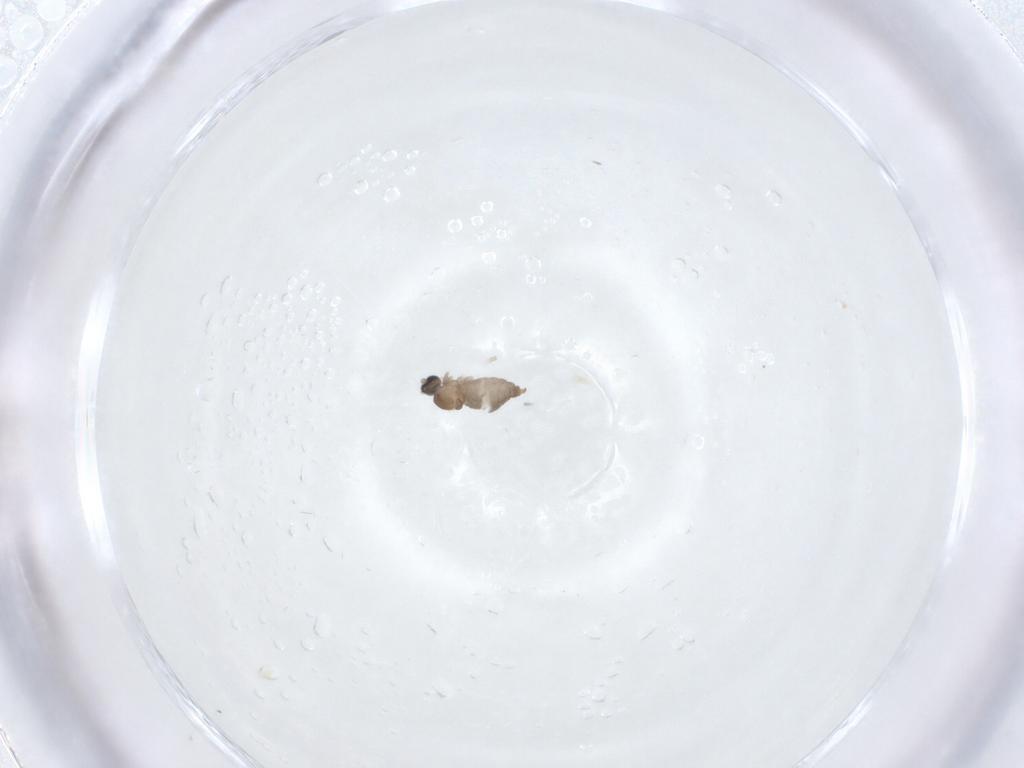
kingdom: Animalia
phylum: Arthropoda
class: Insecta
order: Diptera
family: Cecidomyiidae
